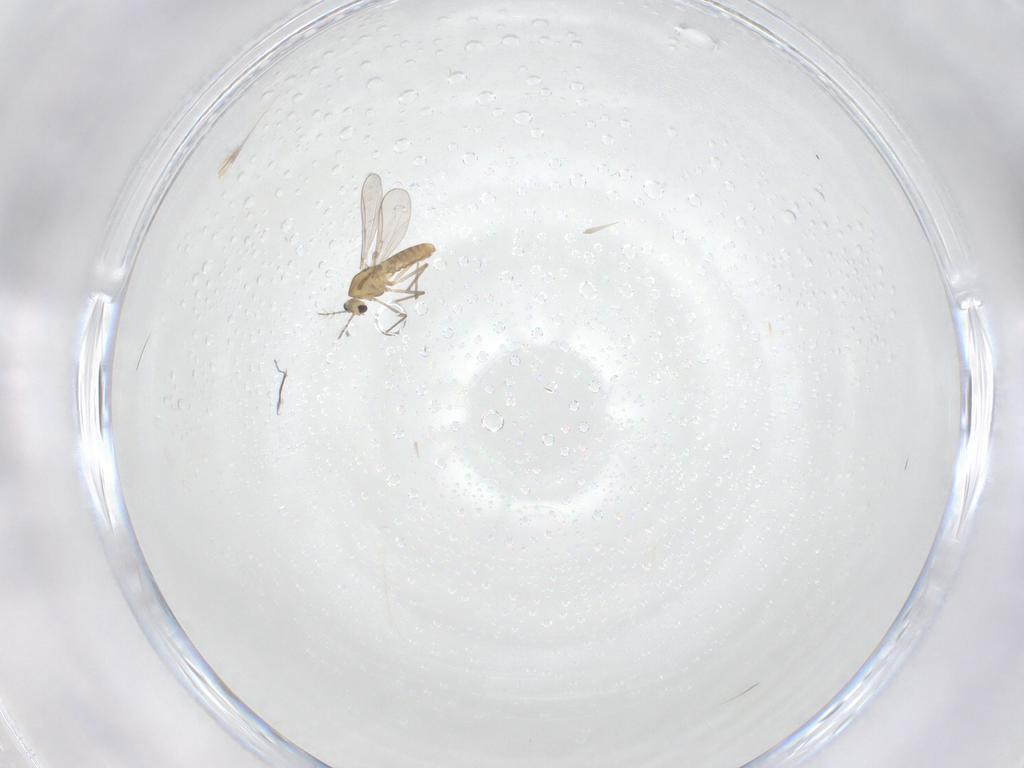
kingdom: Animalia
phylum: Arthropoda
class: Insecta
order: Diptera
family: Chironomidae
